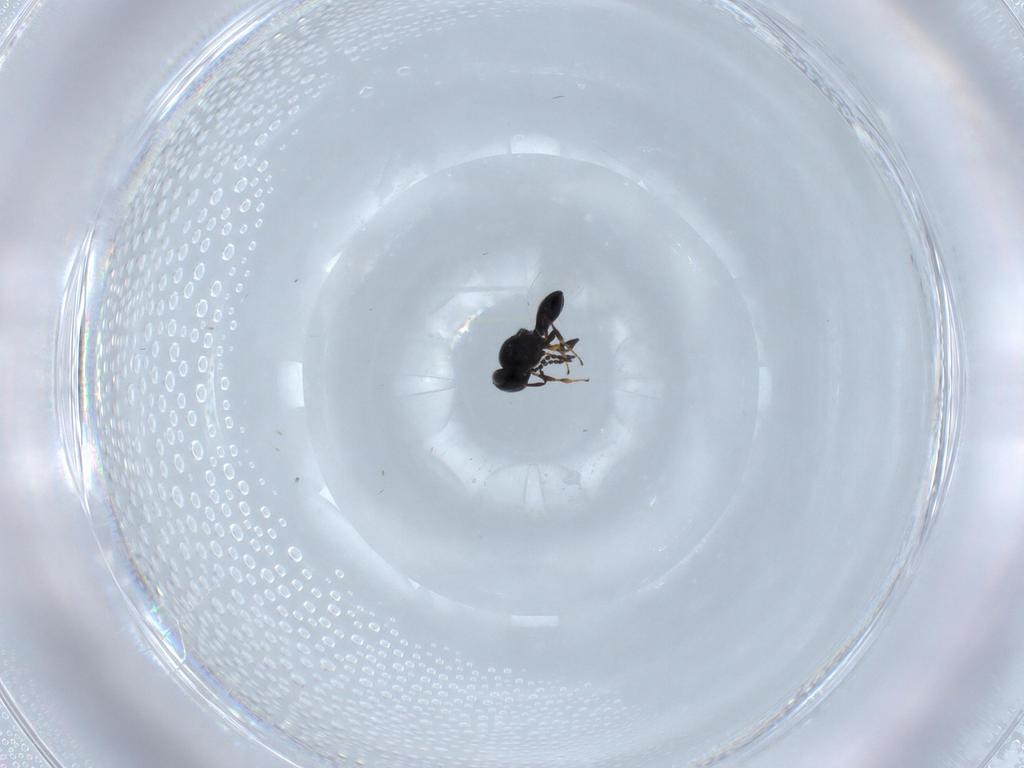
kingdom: Animalia
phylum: Arthropoda
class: Insecta
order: Hymenoptera
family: Platygastridae
